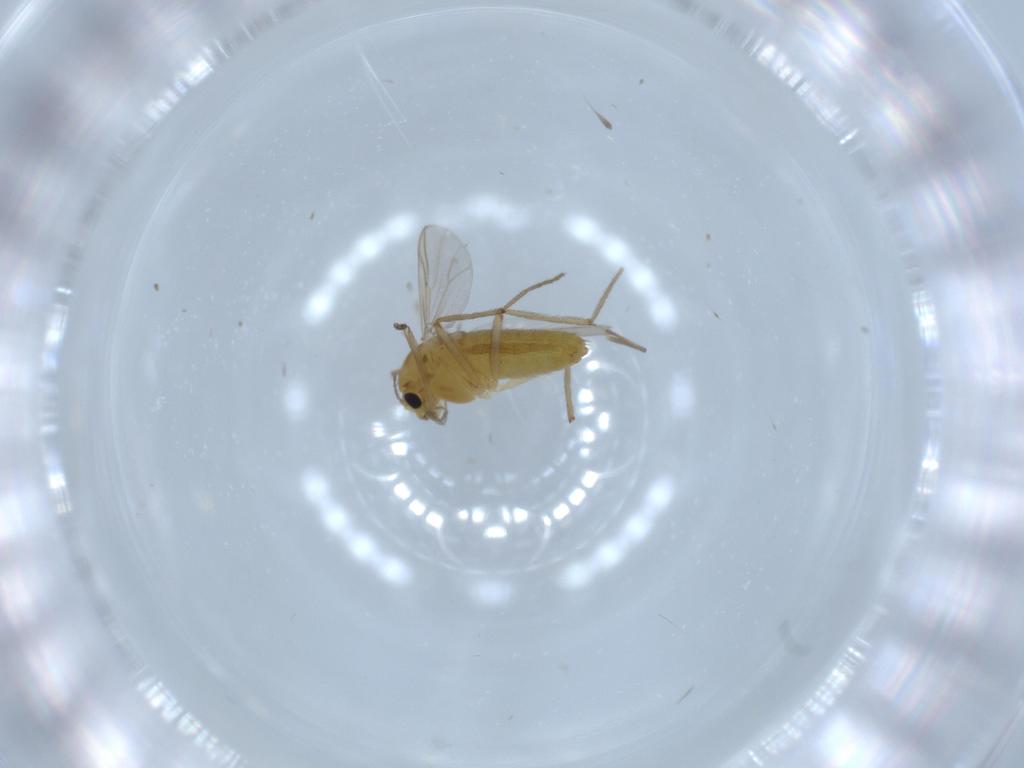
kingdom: Animalia
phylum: Arthropoda
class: Insecta
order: Diptera
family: Chironomidae
